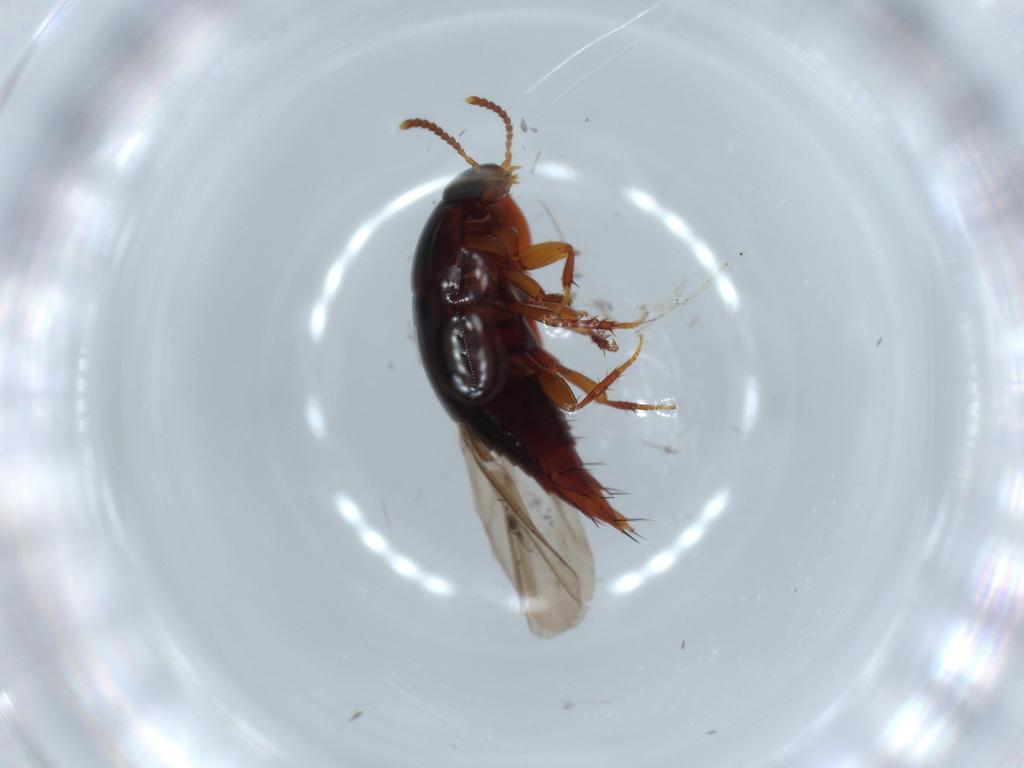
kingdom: Animalia
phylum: Arthropoda
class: Insecta
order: Coleoptera
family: Staphylinidae
